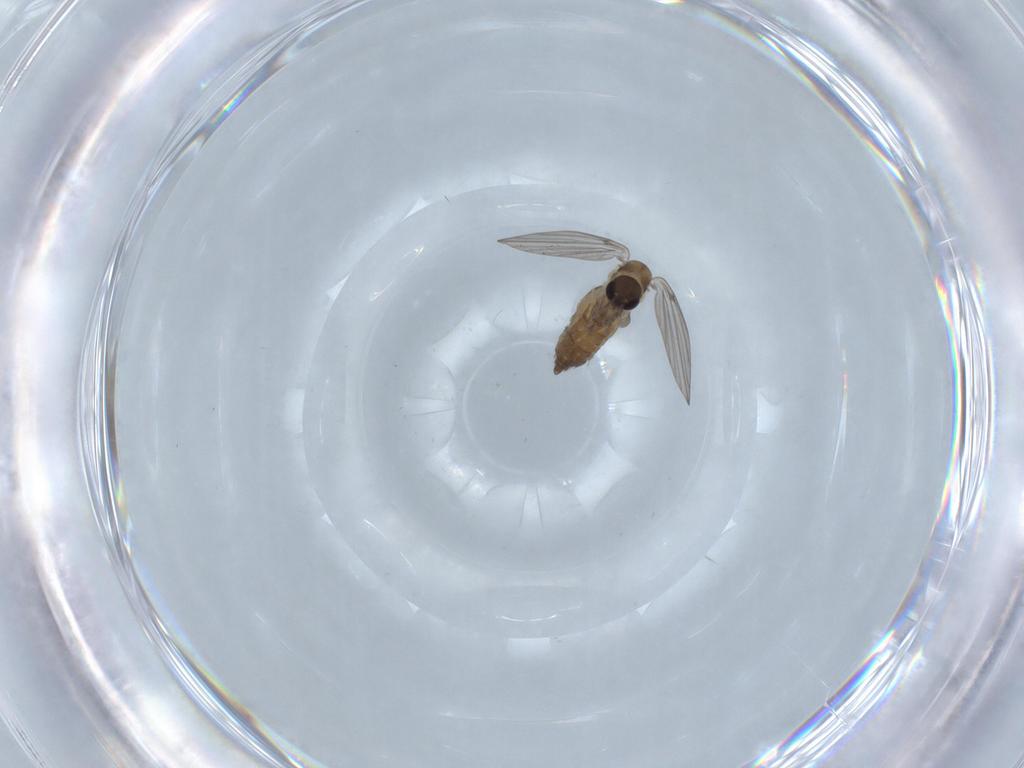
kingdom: Animalia
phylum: Arthropoda
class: Insecta
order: Diptera
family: Psychodidae
